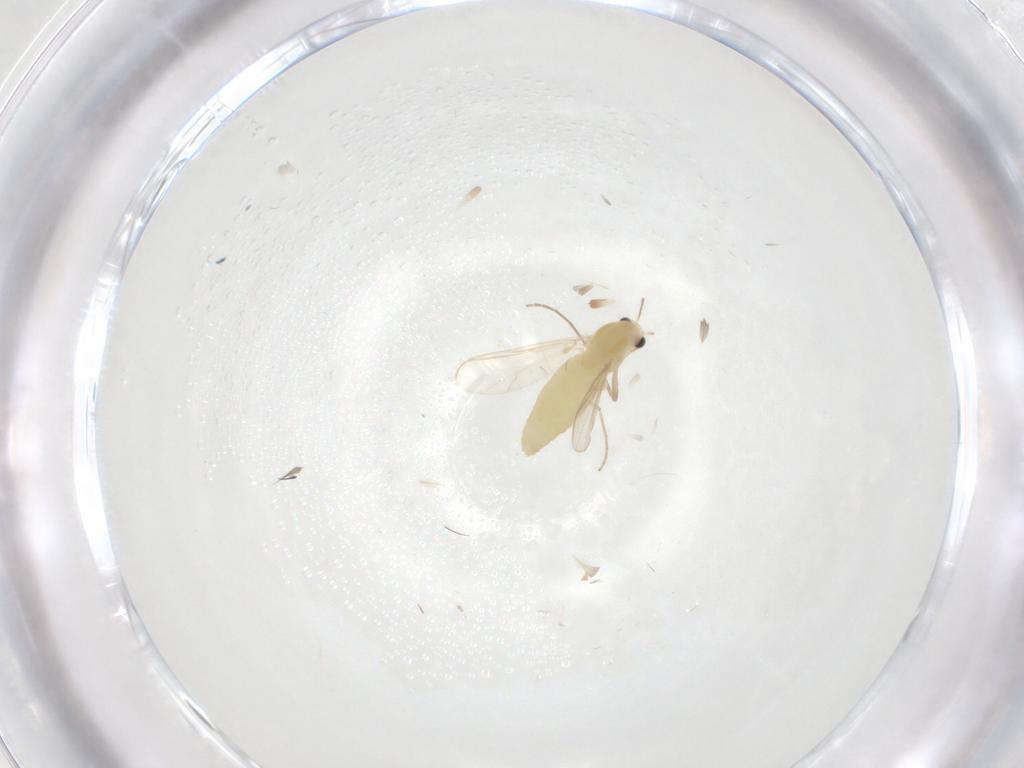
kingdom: Animalia
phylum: Arthropoda
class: Insecta
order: Diptera
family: Chironomidae
